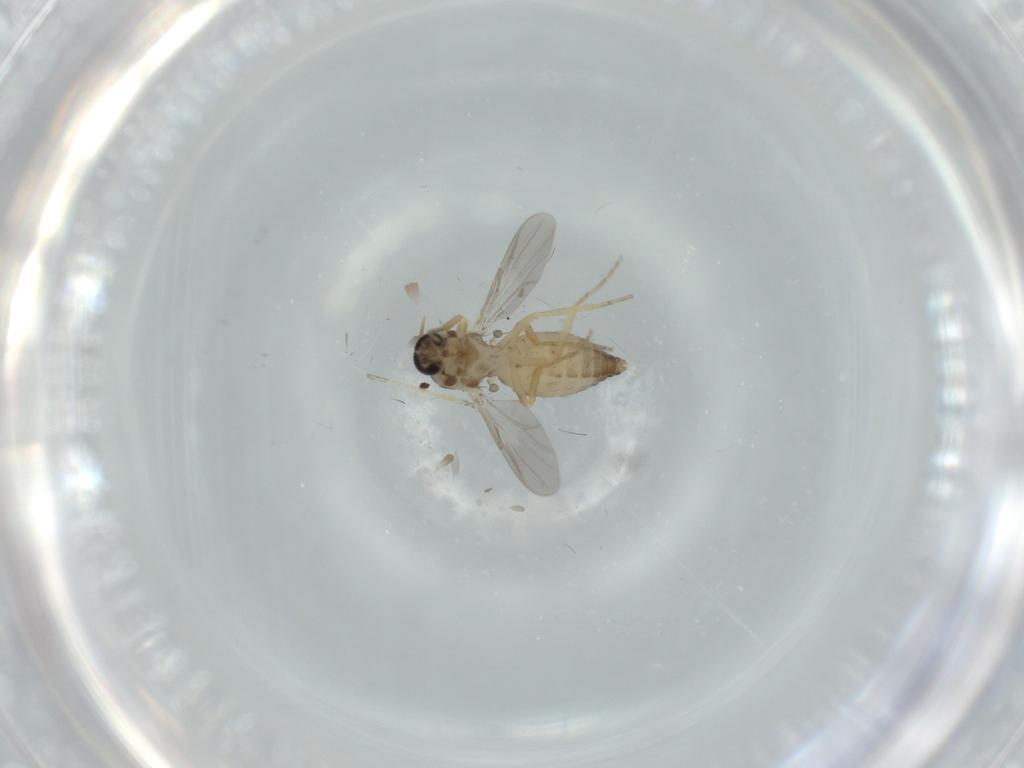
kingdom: Animalia
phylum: Arthropoda
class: Insecta
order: Diptera
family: Ceratopogonidae
